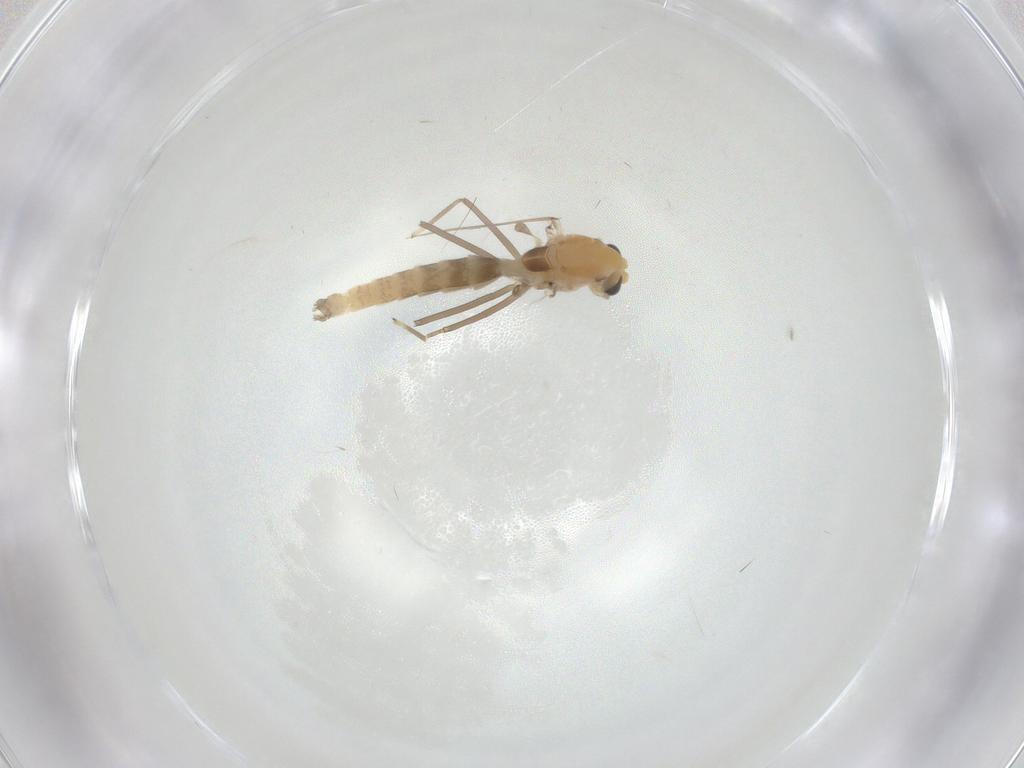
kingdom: Animalia
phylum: Arthropoda
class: Insecta
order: Diptera
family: Chironomidae
